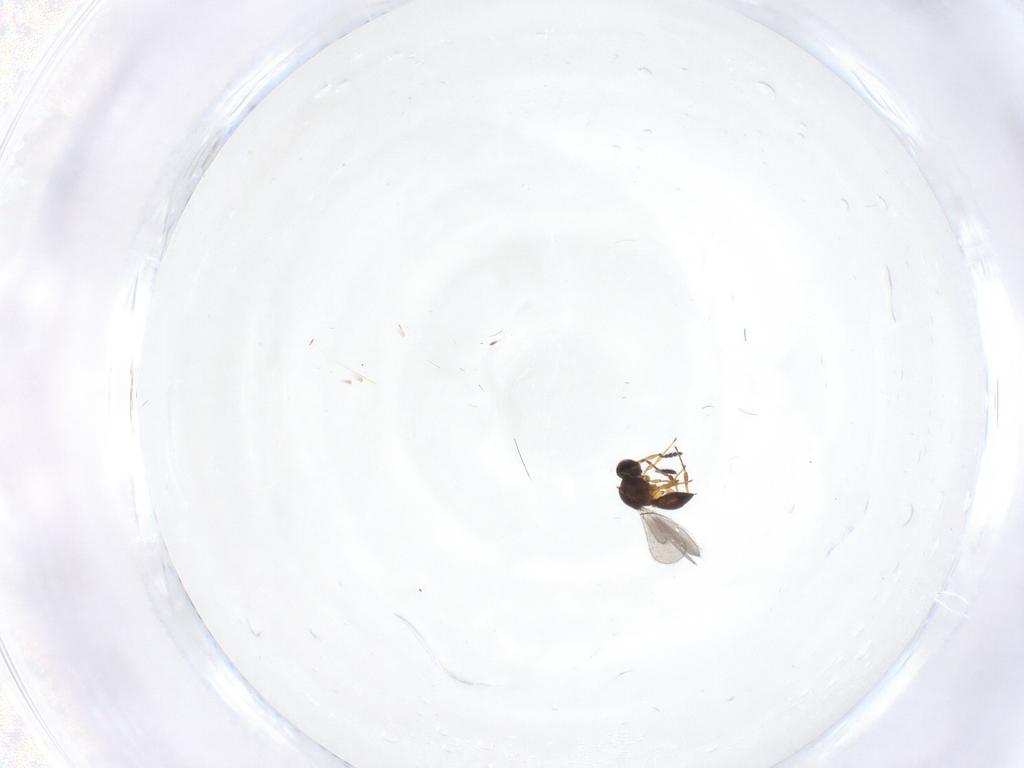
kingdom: Animalia
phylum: Arthropoda
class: Insecta
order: Hymenoptera
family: Platygastridae
